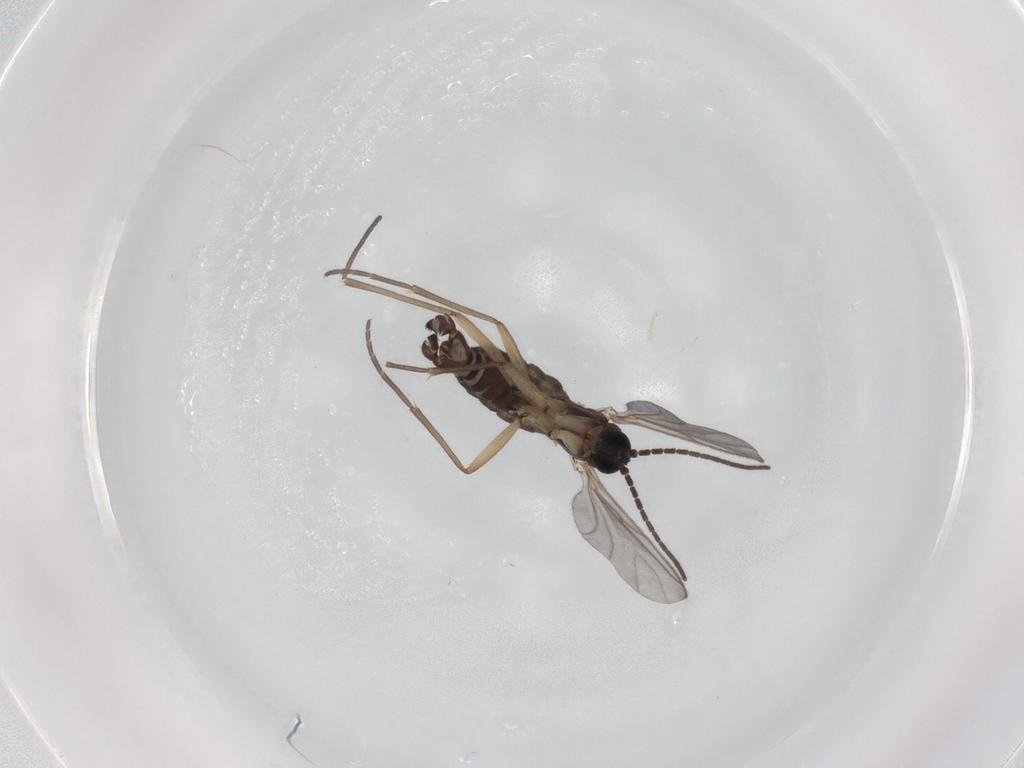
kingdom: Animalia
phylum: Arthropoda
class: Insecta
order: Diptera
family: Sciaridae
